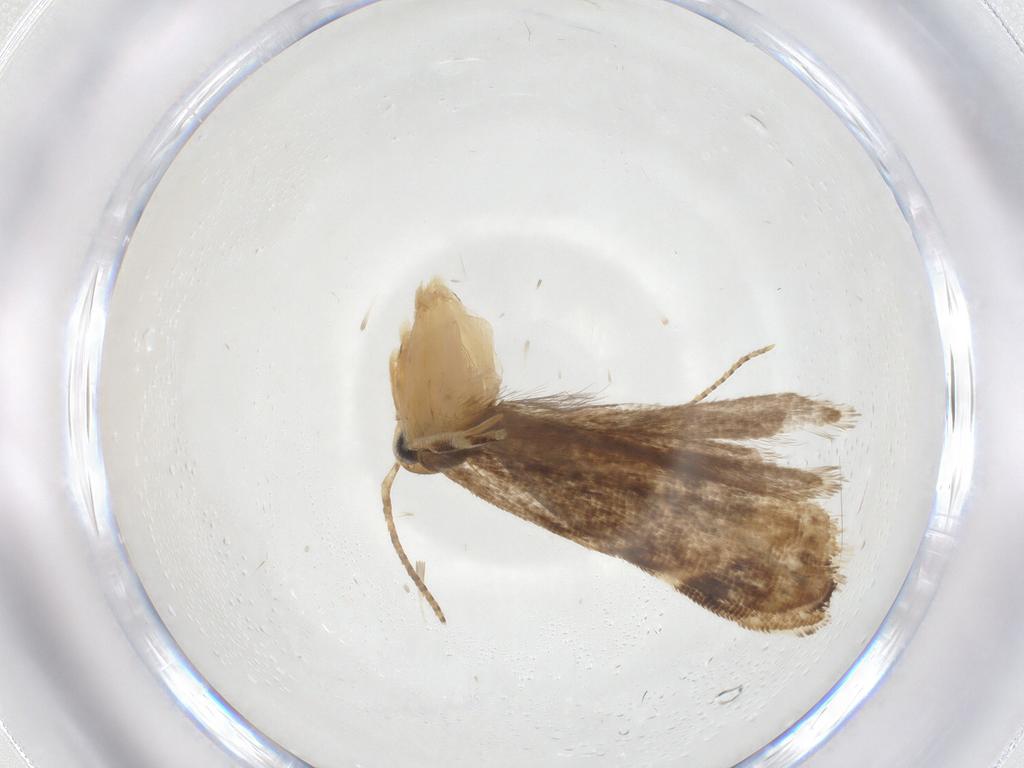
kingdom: Animalia
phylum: Arthropoda
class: Insecta
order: Lepidoptera
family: Erebidae
